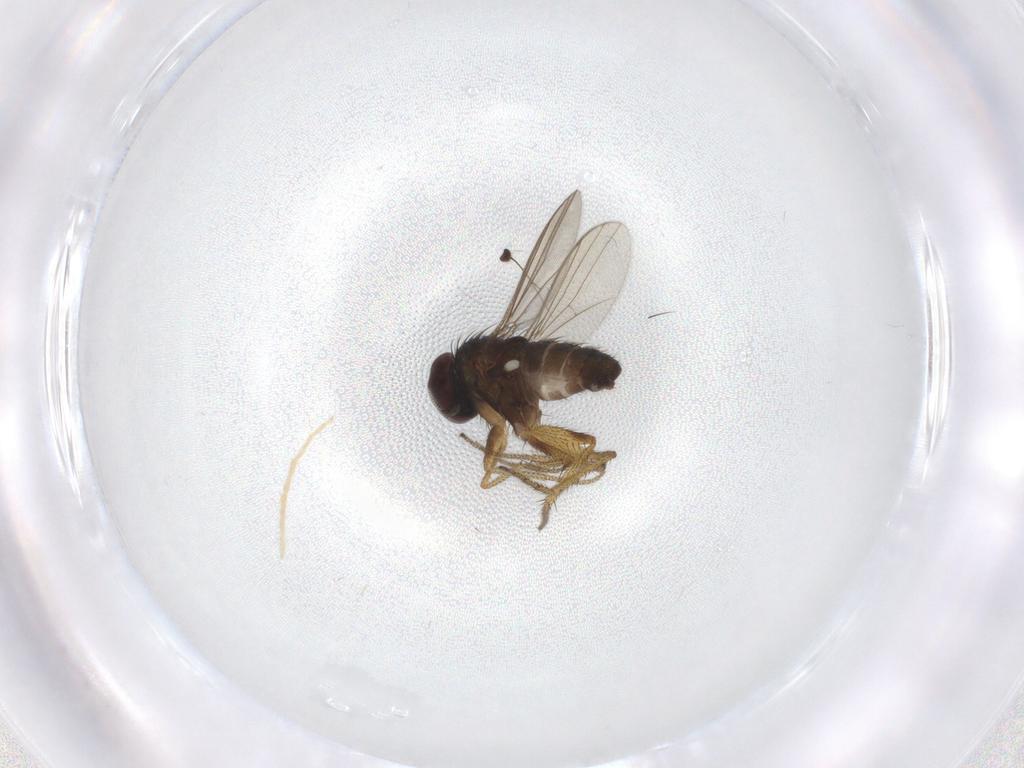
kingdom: Animalia
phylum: Arthropoda
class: Insecta
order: Diptera
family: Chironomidae
